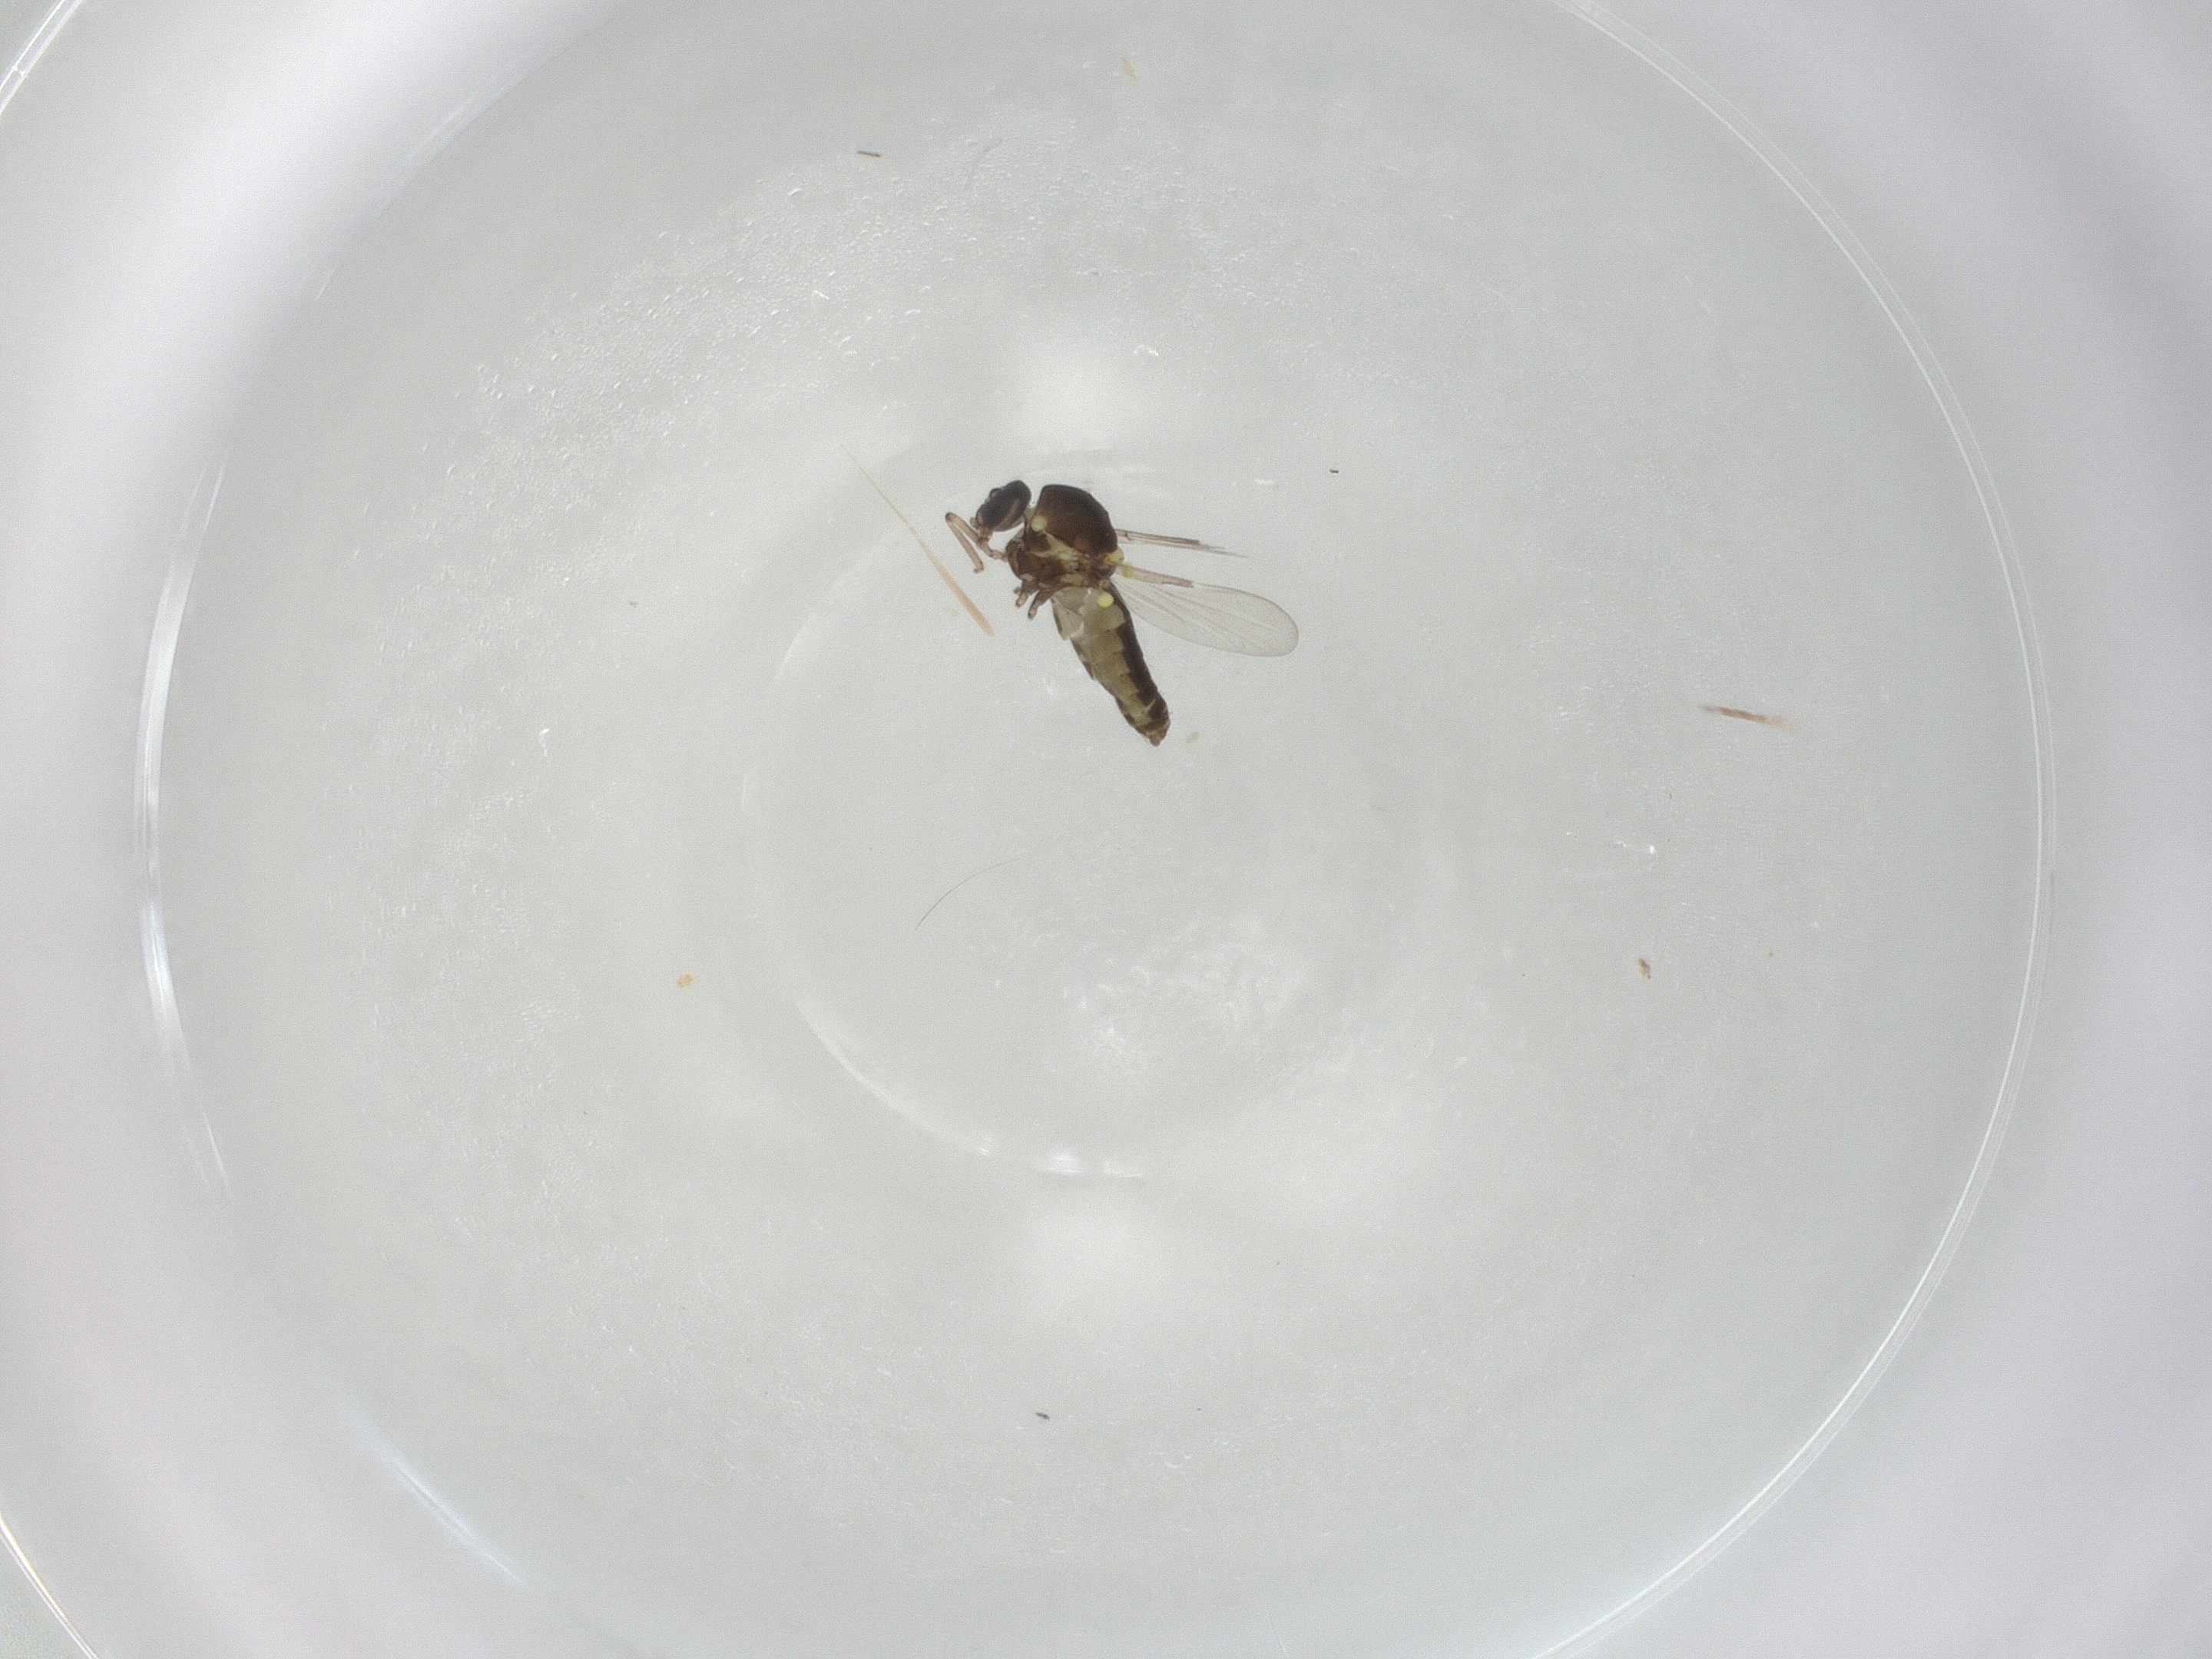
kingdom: Animalia
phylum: Arthropoda
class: Insecta
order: Diptera
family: Ceratopogonidae
